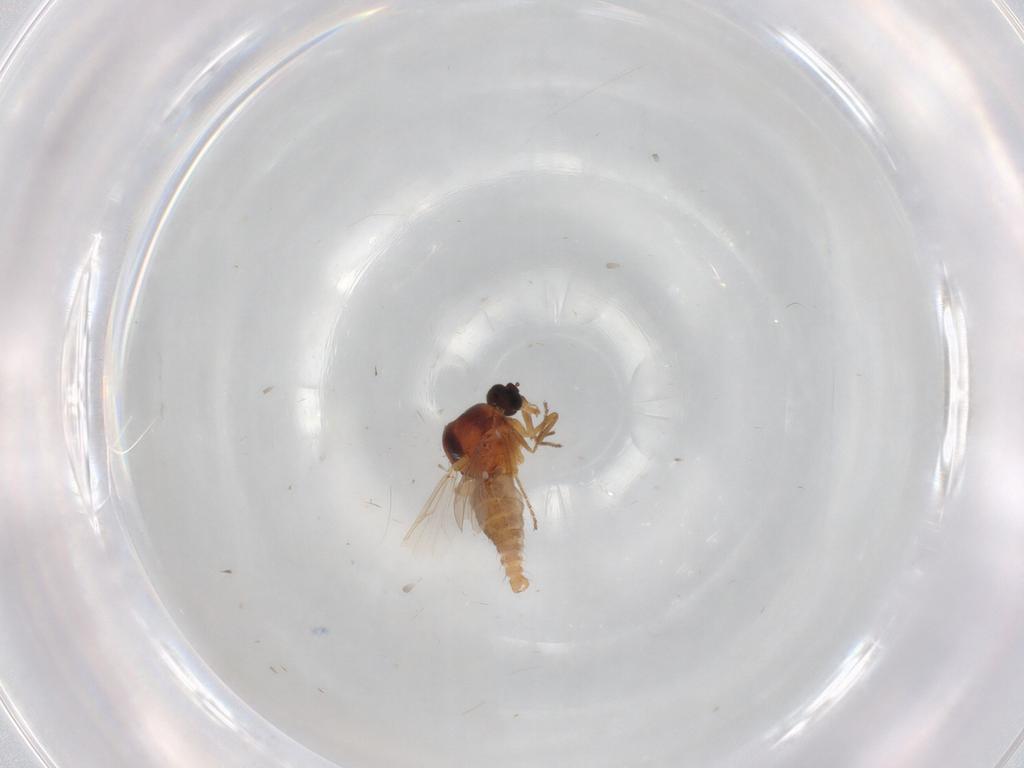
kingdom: Animalia
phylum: Arthropoda
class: Insecta
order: Diptera
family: Ceratopogonidae
